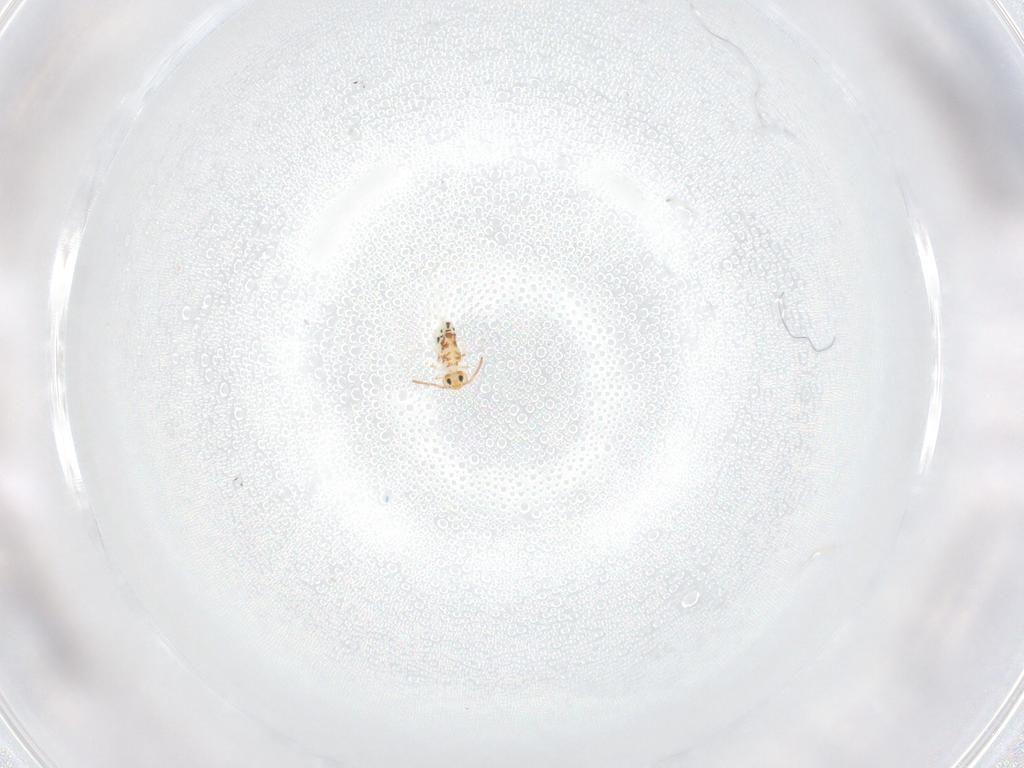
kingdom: Animalia
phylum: Arthropoda
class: Collembola
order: Symphypleona
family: Bourletiellidae
